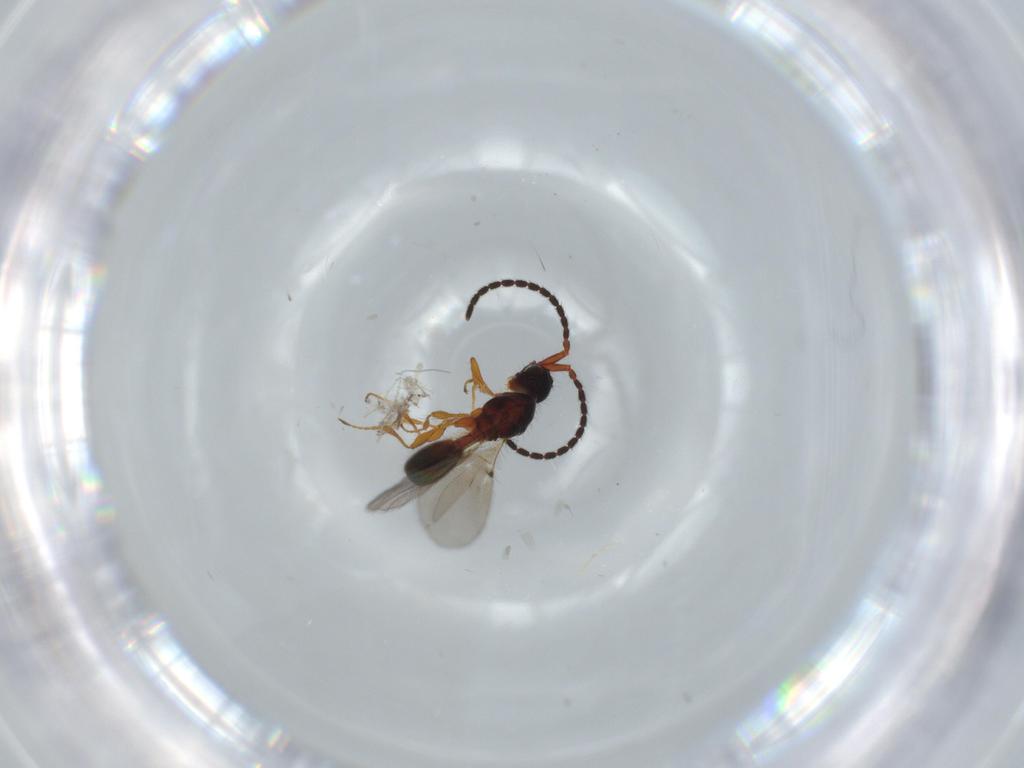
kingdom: Animalia
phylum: Arthropoda
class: Insecta
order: Hymenoptera
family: Diapriidae
